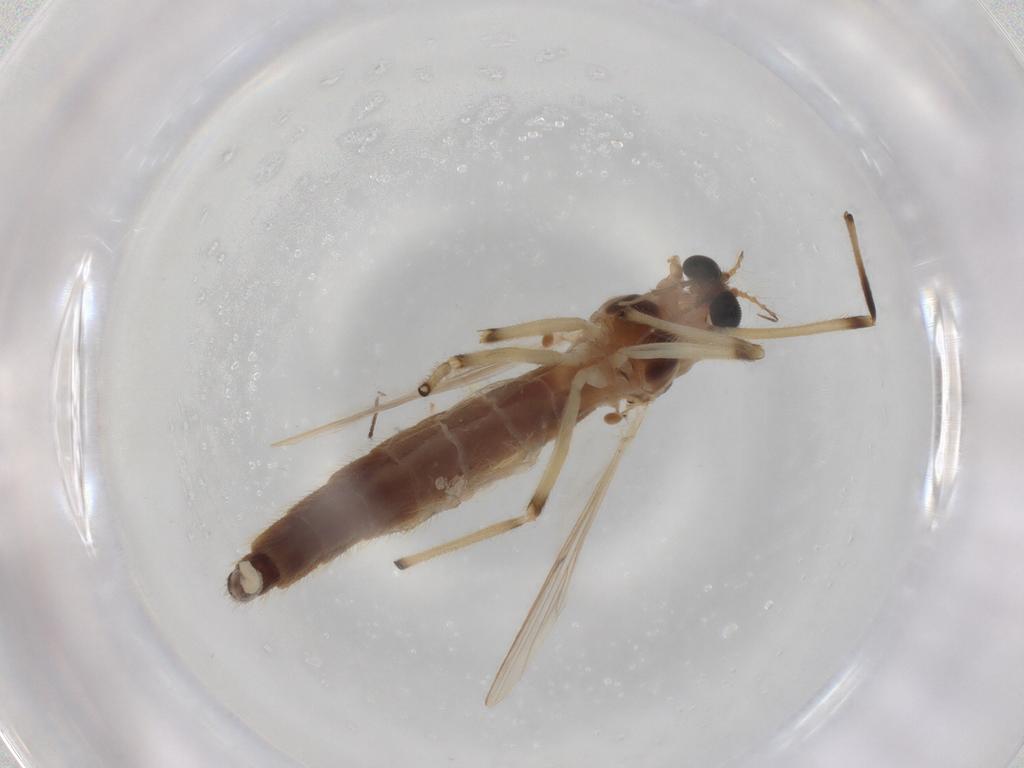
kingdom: Animalia
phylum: Arthropoda
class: Insecta
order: Diptera
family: Chironomidae
